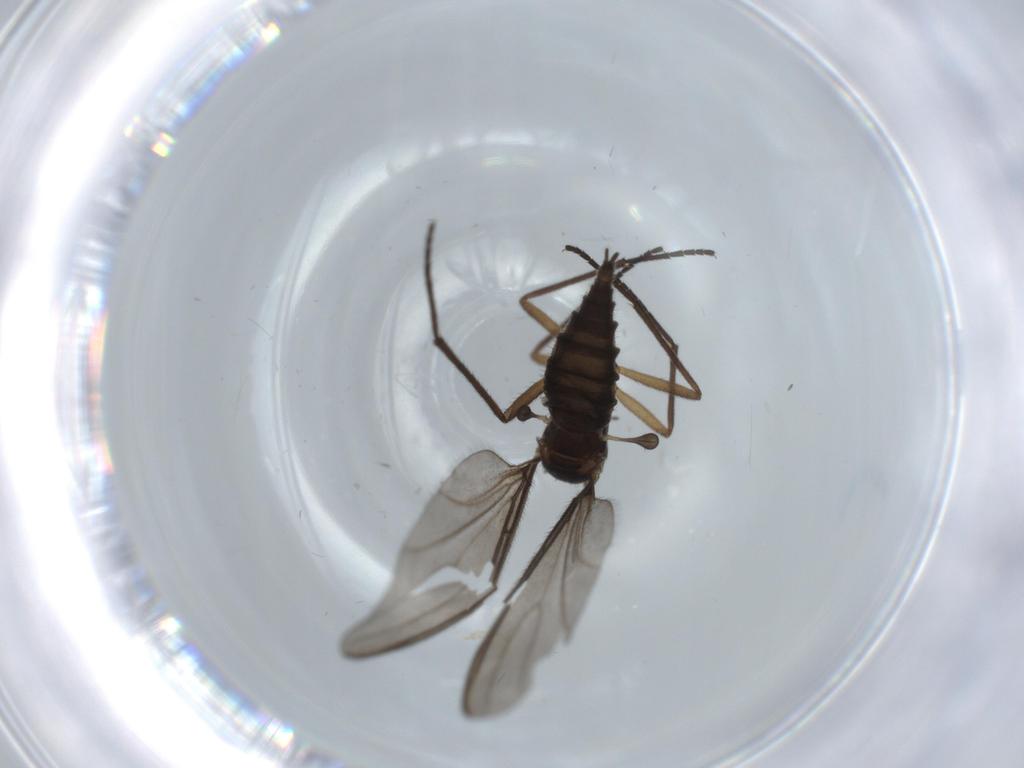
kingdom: Animalia
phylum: Arthropoda
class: Insecta
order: Diptera
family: Sciaridae
